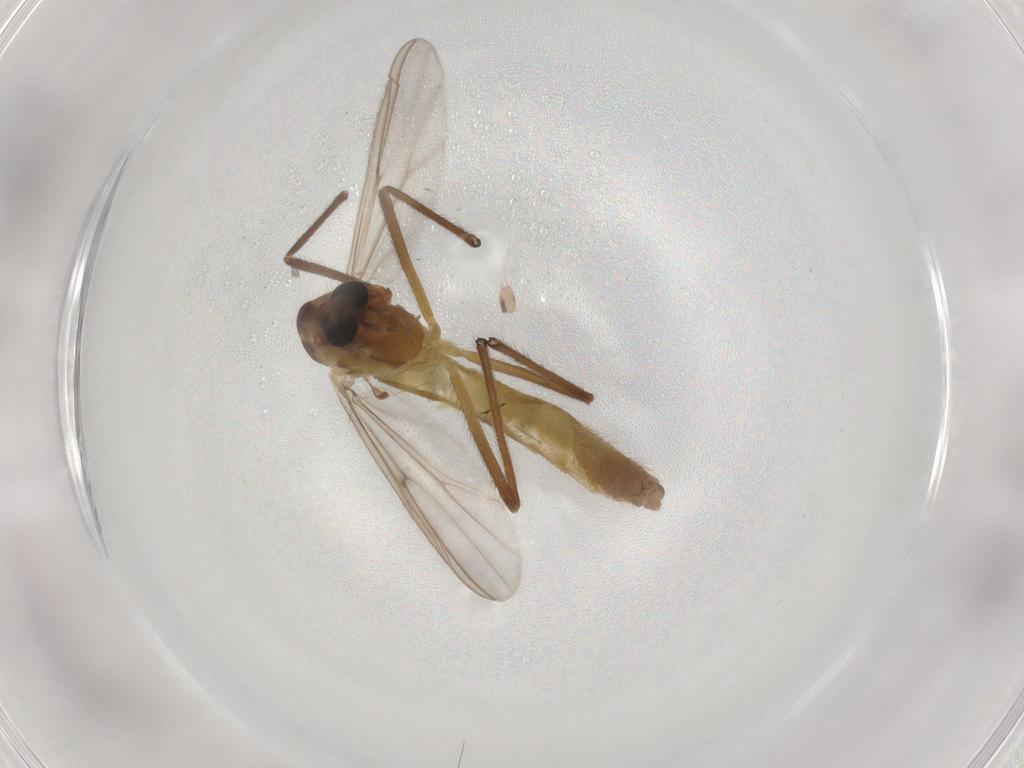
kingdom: Animalia
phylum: Arthropoda
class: Insecta
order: Diptera
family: Chironomidae
